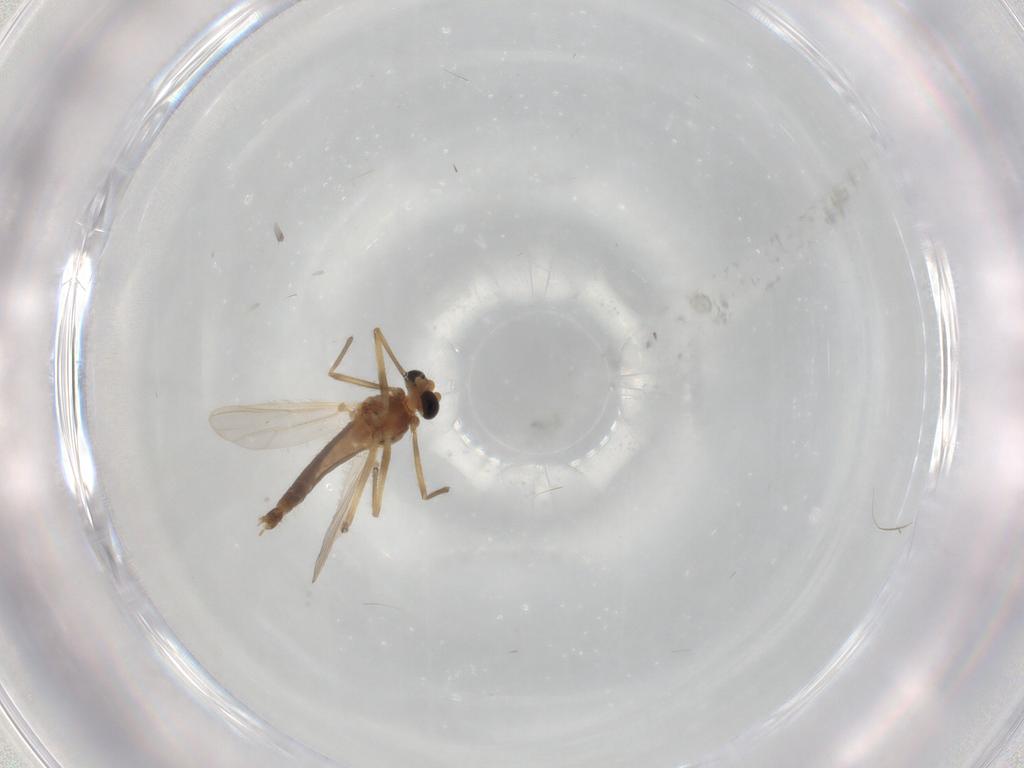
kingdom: Animalia
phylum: Arthropoda
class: Insecta
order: Diptera
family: Chironomidae
